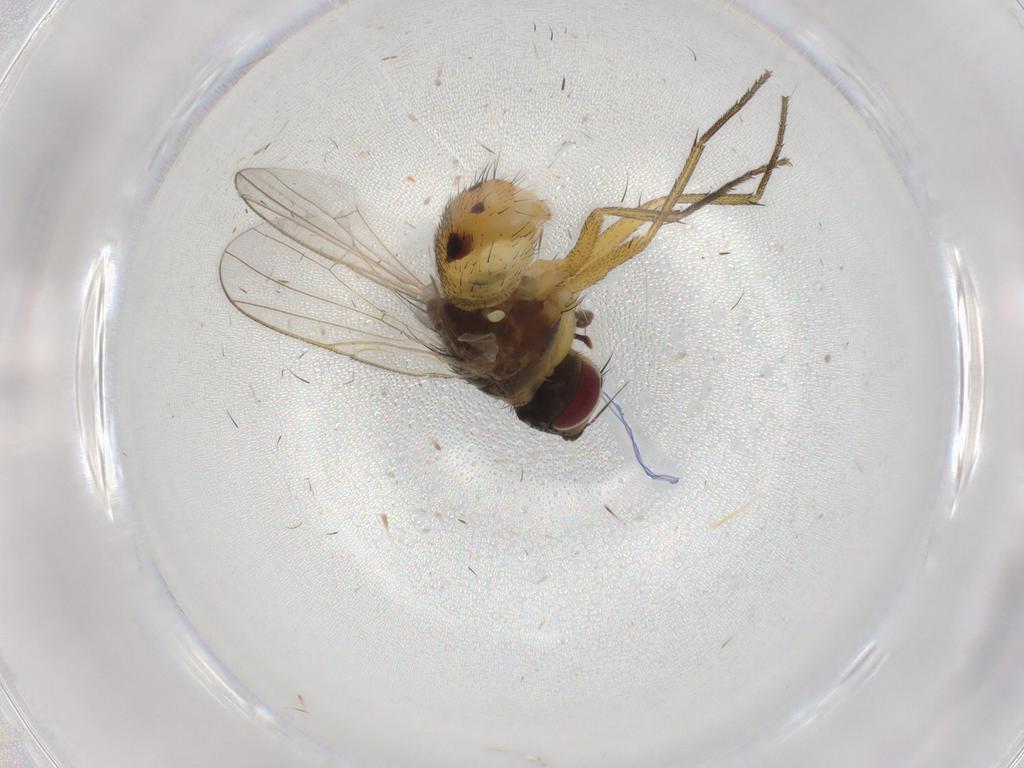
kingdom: Animalia
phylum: Arthropoda
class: Insecta
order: Diptera
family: Muscidae
